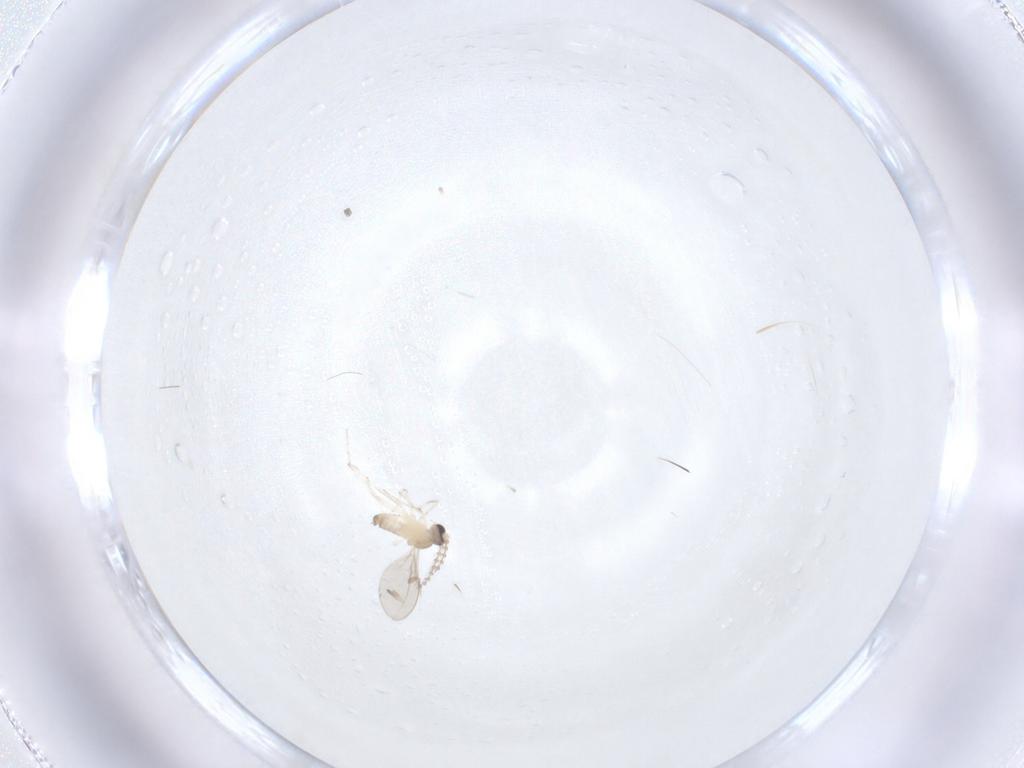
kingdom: Animalia
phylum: Arthropoda
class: Insecta
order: Diptera
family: Cecidomyiidae
